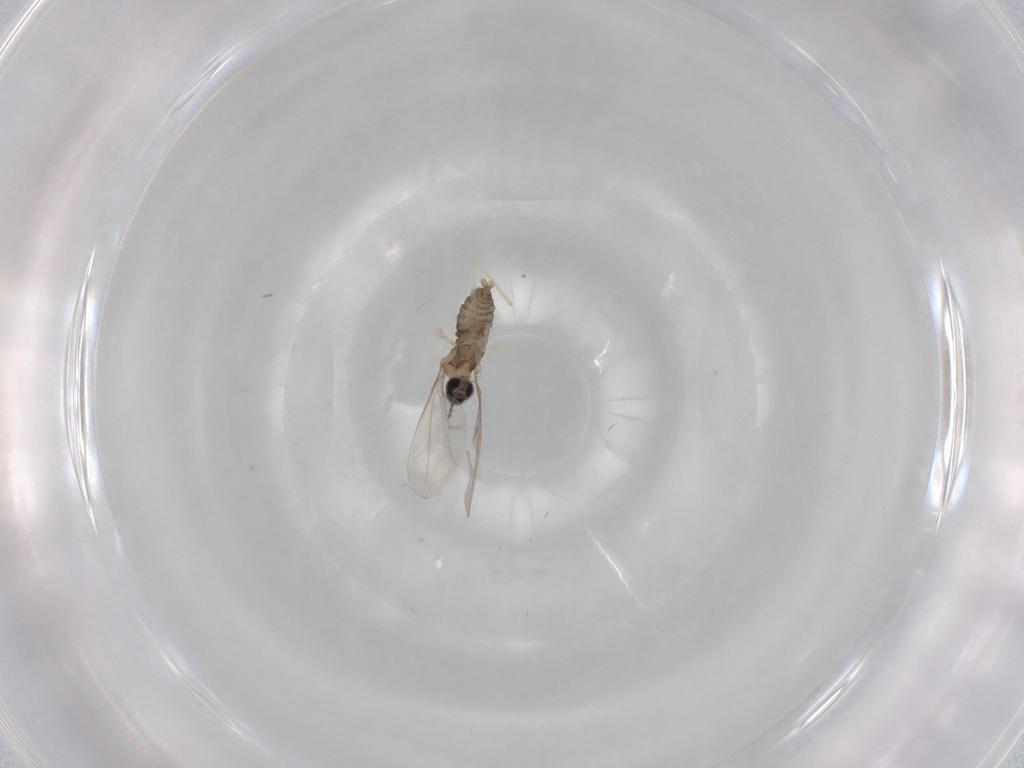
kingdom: Animalia
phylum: Arthropoda
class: Insecta
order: Diptera
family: Cecidomyiidae
